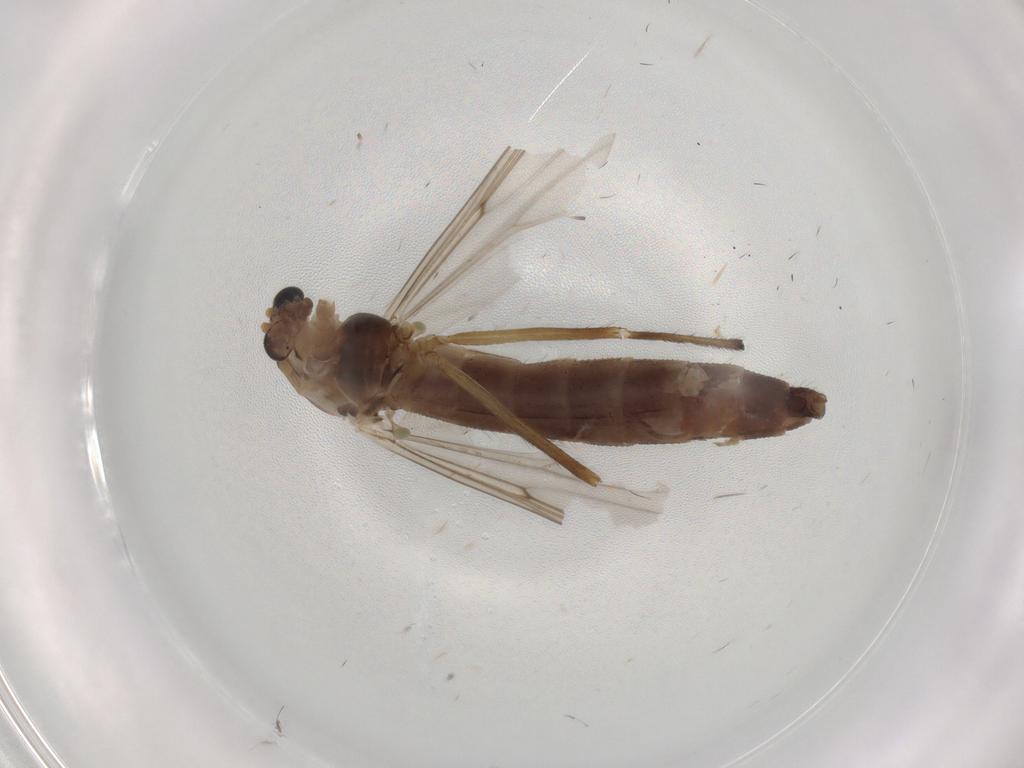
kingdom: Animalia
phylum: Arthropoda
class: Insecta
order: Diptera
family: Chironomidae
